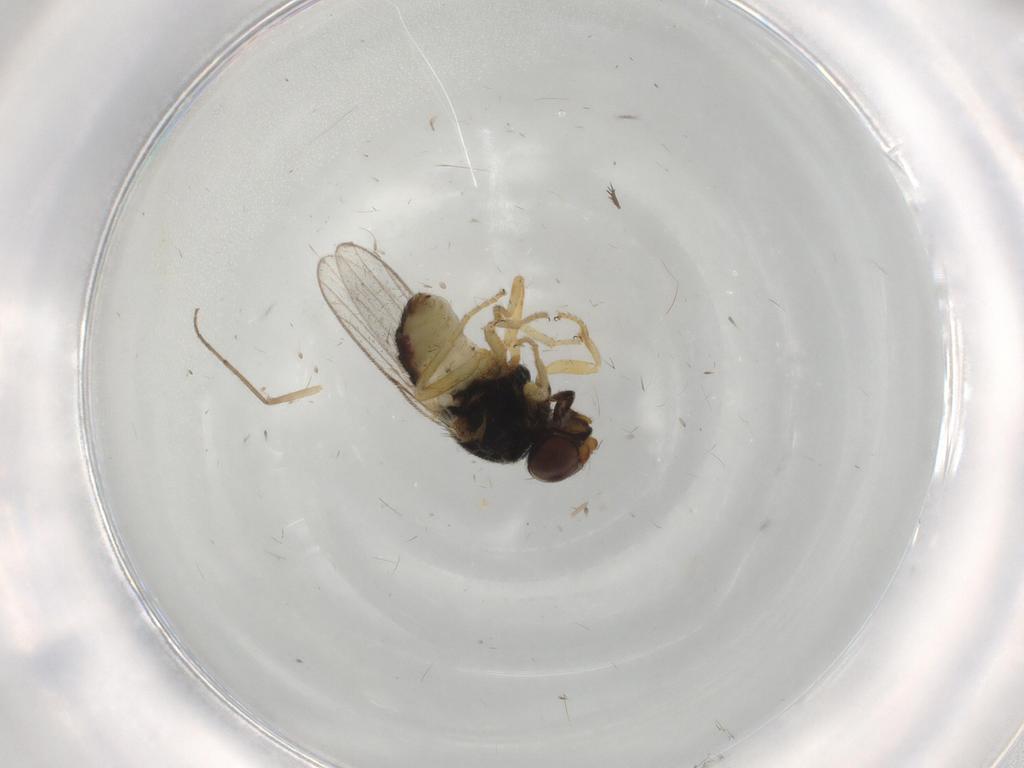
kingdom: Animalia
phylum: Arthropoda
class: Insecta
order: Diptera
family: Chloropidae
